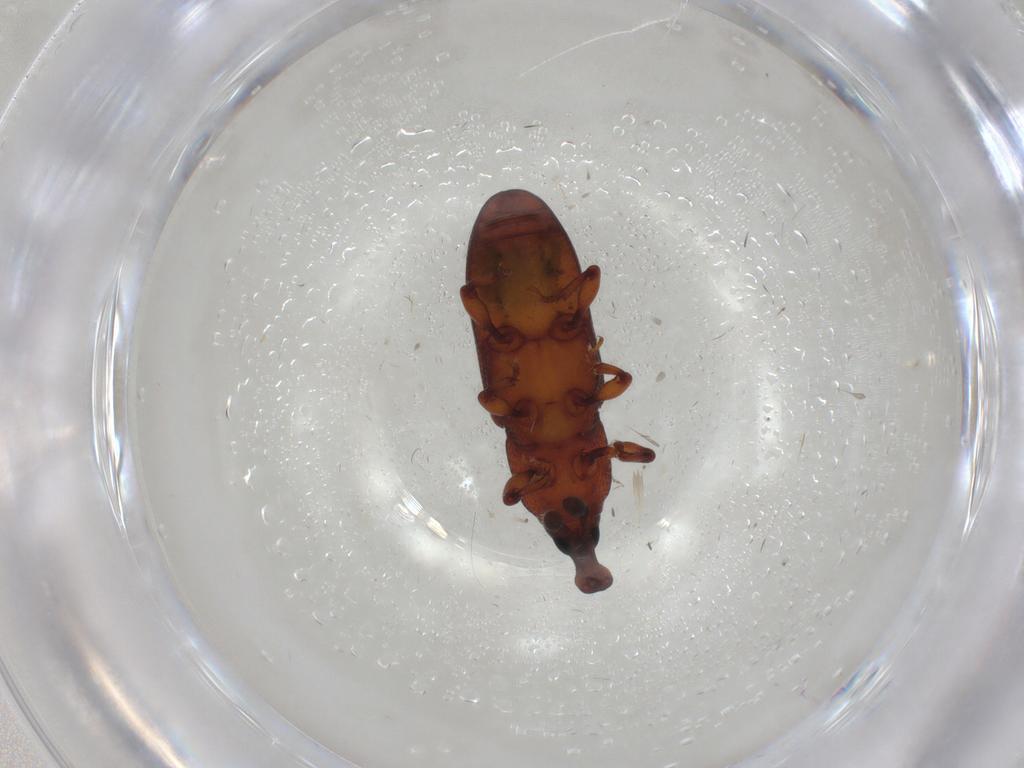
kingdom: Animalia
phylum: Arthropoda
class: Insecta
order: Coleoptera
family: Curculionidae
